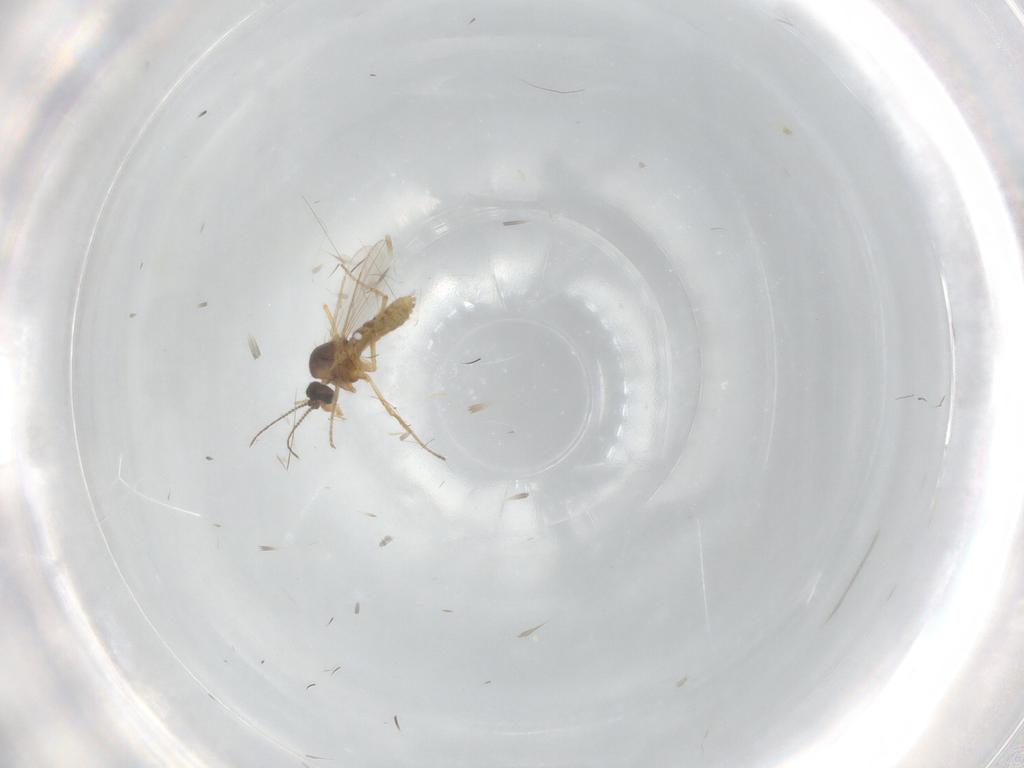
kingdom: Animalia
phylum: Arthropoda
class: Insecta
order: Diptera
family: Ceratopogonidae
